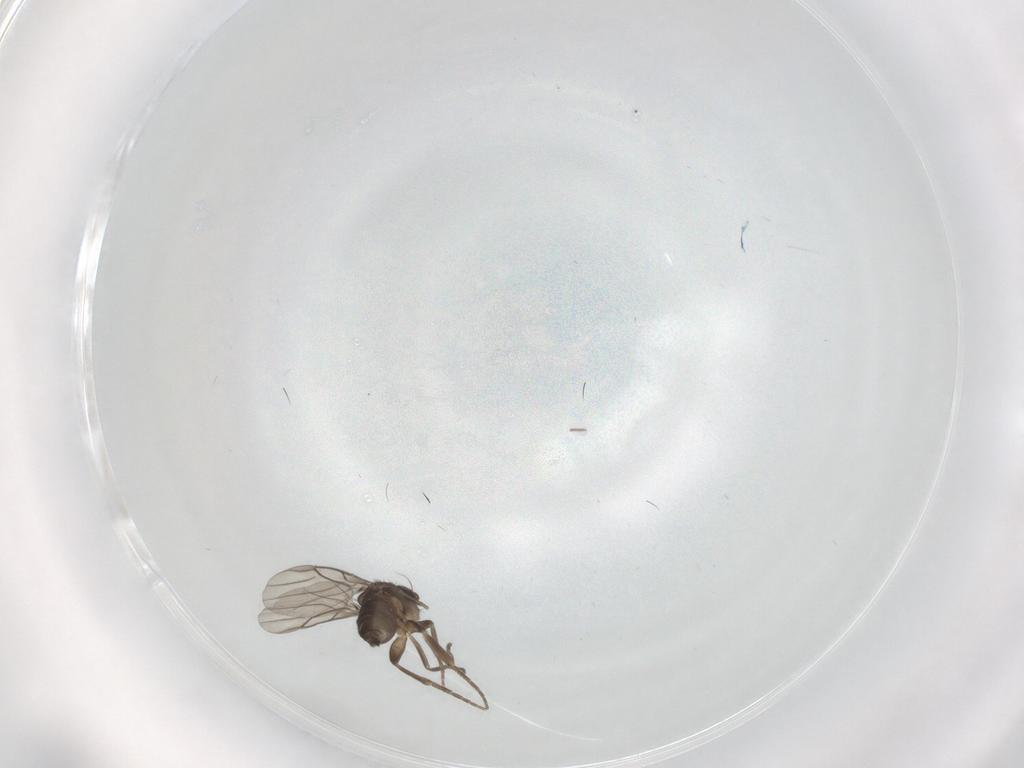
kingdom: Animalia
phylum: Arthropoda
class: Insecta
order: Diptera
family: Phoridae
